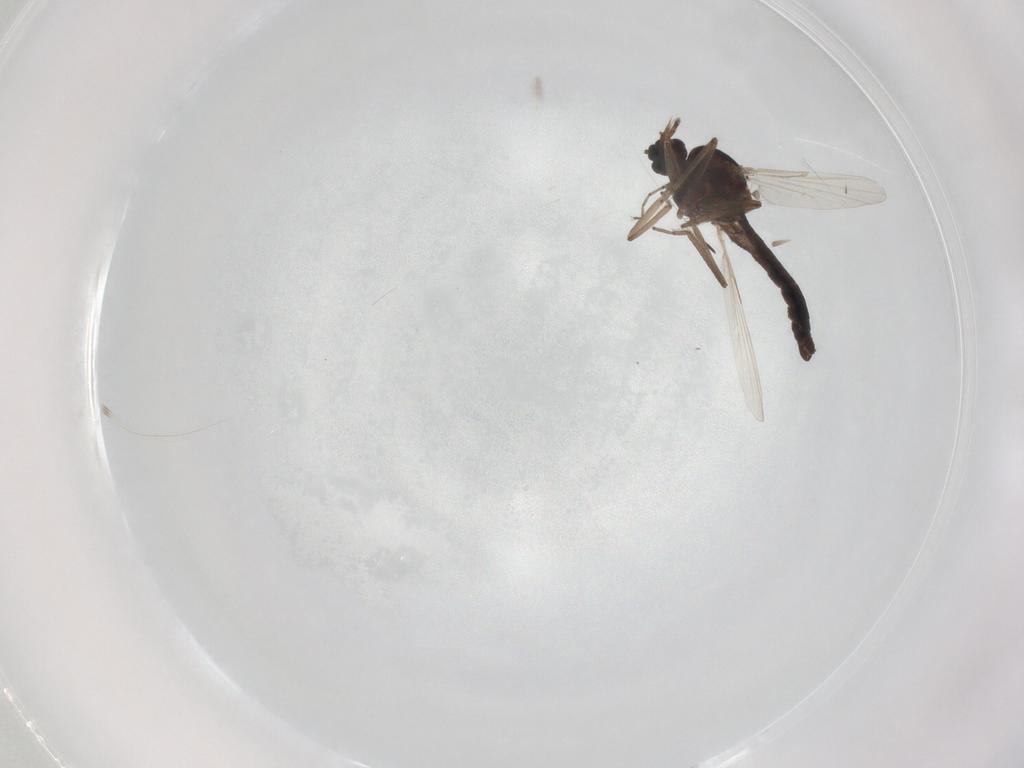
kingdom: Animalia
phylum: Arthropoda
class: Insecta
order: Diptera
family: Ceratopogonidae
